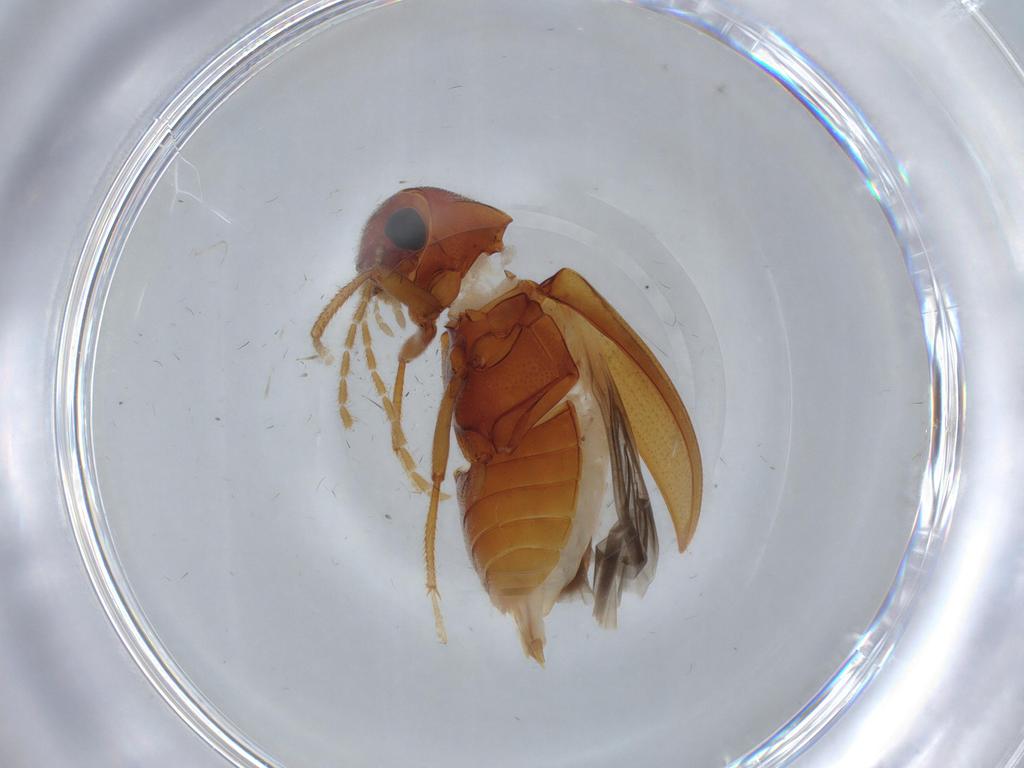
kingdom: Animalia
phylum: Arthropoda
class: Insecta
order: Coleoptera
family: Ptilodactylidae
